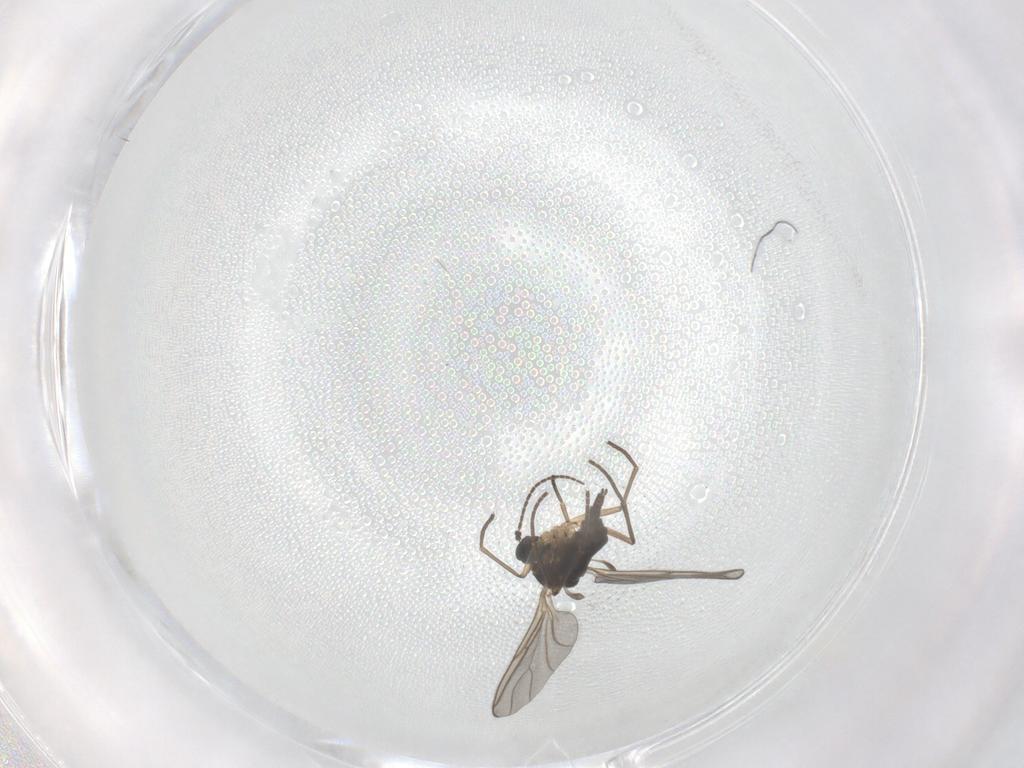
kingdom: Animalia
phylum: Arthropoda
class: Insecta
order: Diptera
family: Sciaridae
